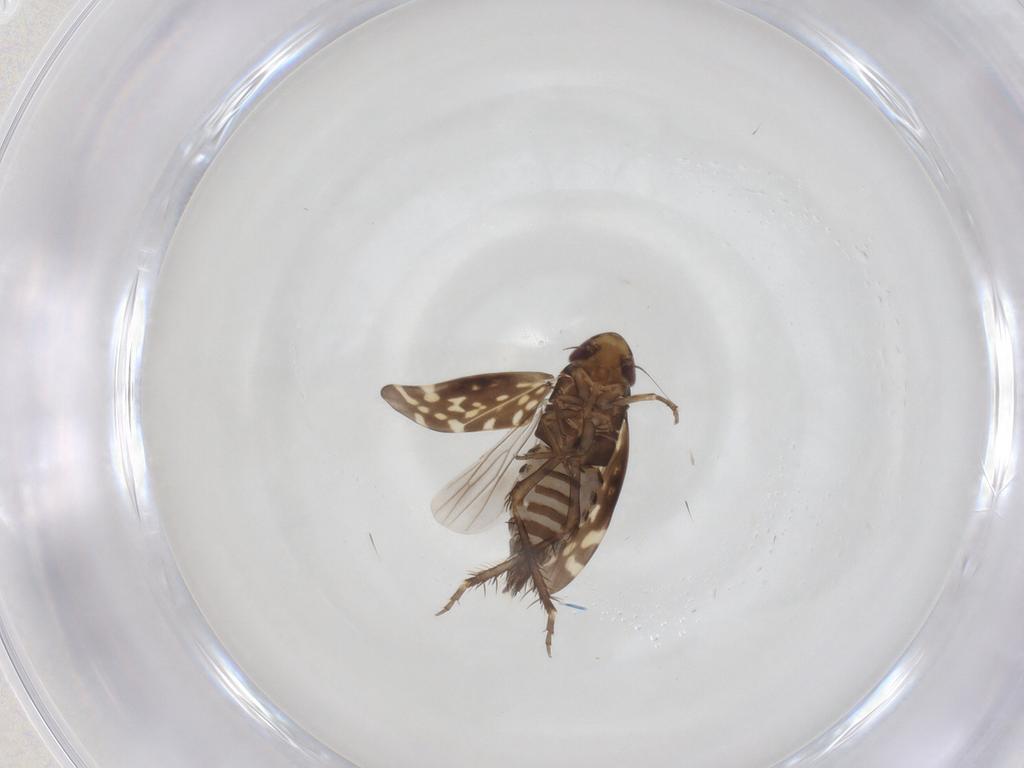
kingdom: Animalia
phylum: Arthropoda
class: Insecta
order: Hemiptera
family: Cicadellidae
